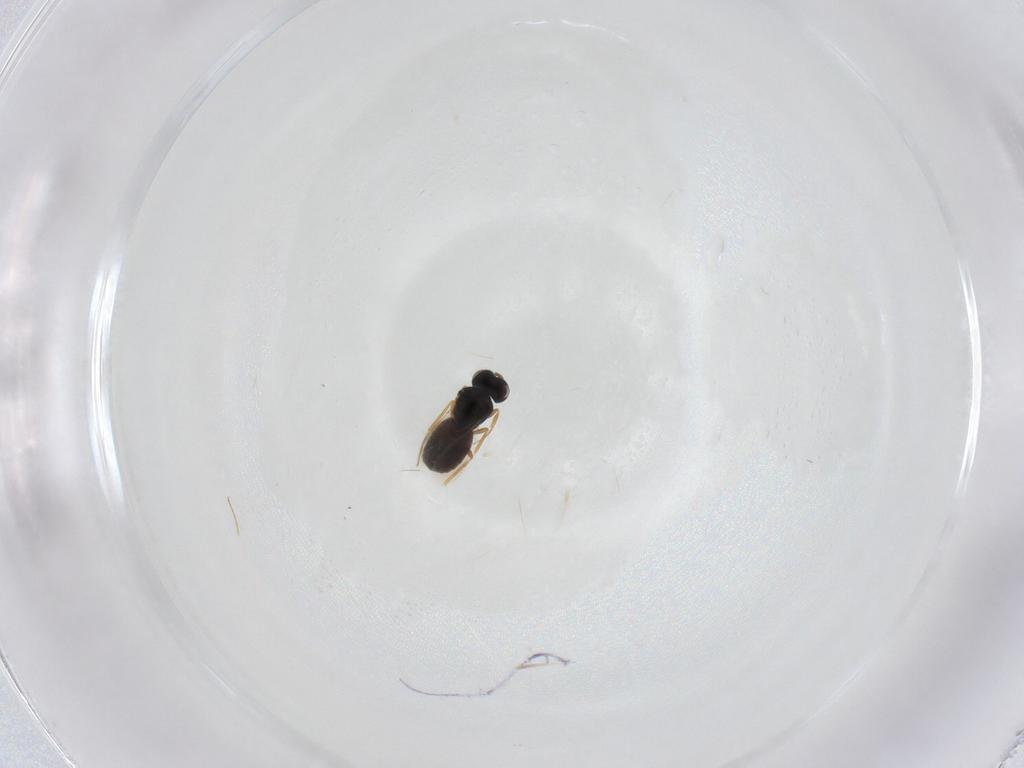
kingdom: Animalia
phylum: Arthropoda
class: Insecta
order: Hymenoptera
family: Scelionidae
